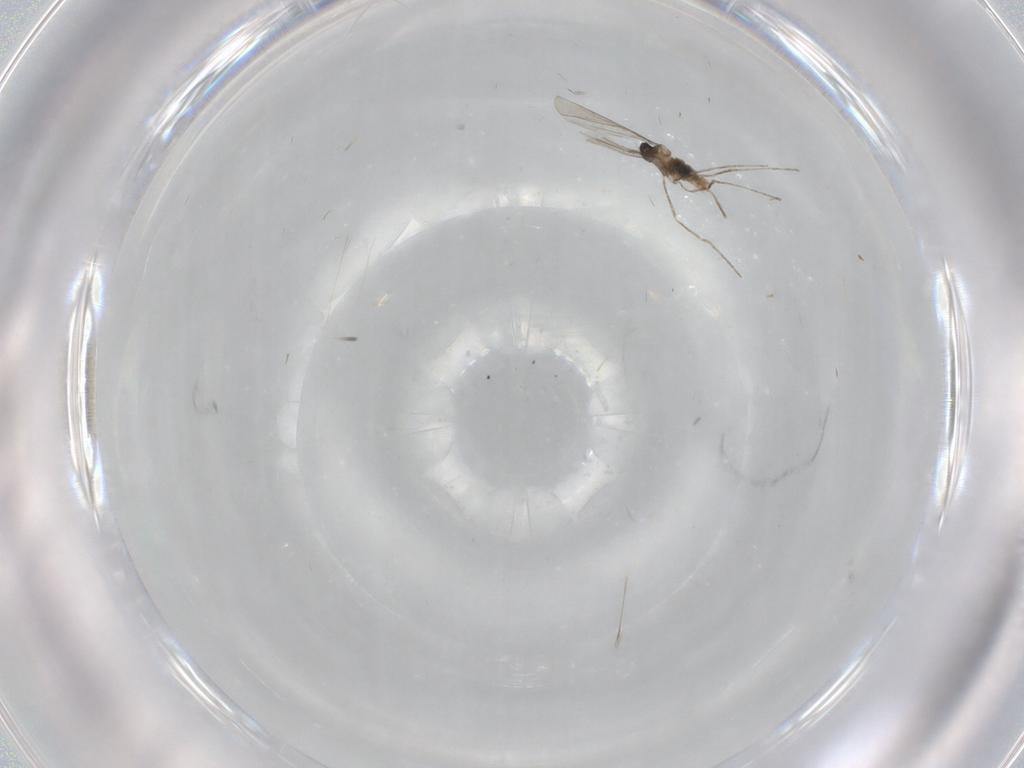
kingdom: Animalia
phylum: Arthropoda
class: Insecta
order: Diptera
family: Cecidomyiidae
